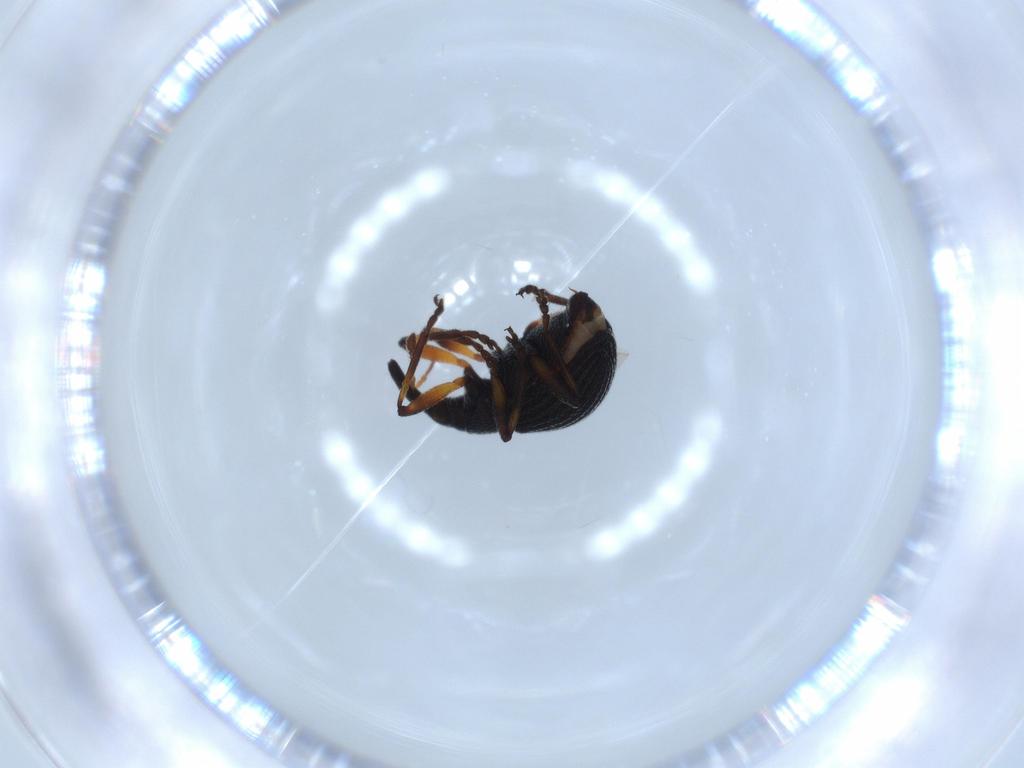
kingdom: Animalia
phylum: Arthropoda
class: Insecta
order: Coleoptera
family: Brentidae
